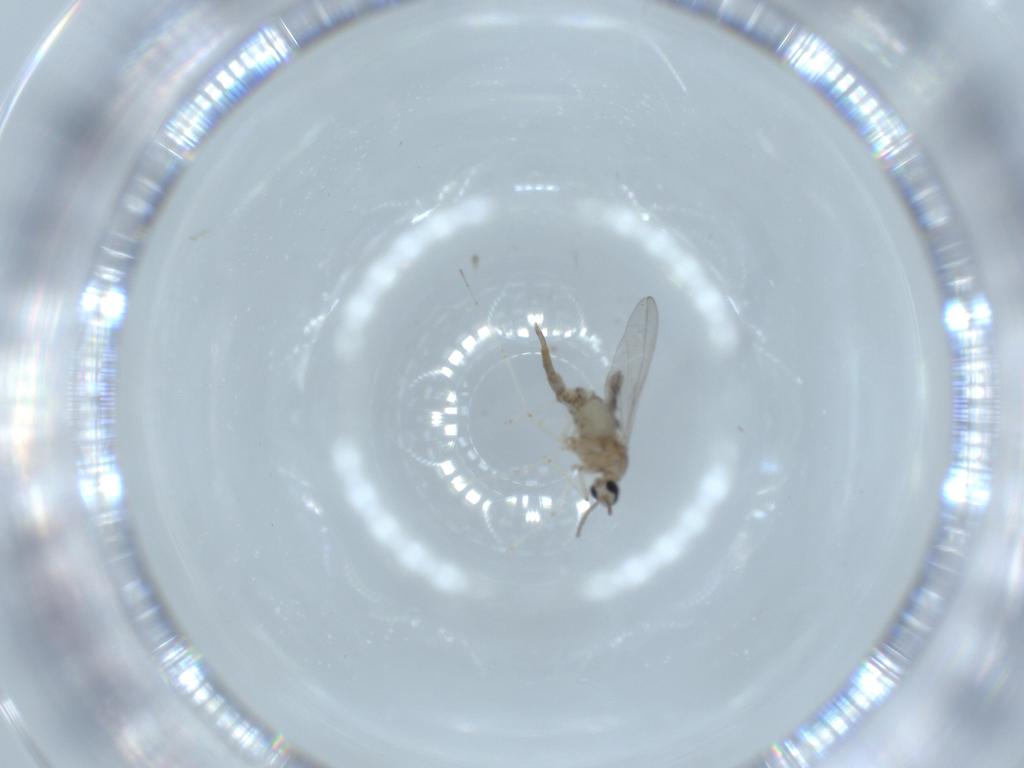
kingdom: Animalia
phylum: Arthropoda
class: Insecta
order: Diptera
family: Cecidomyiidae
